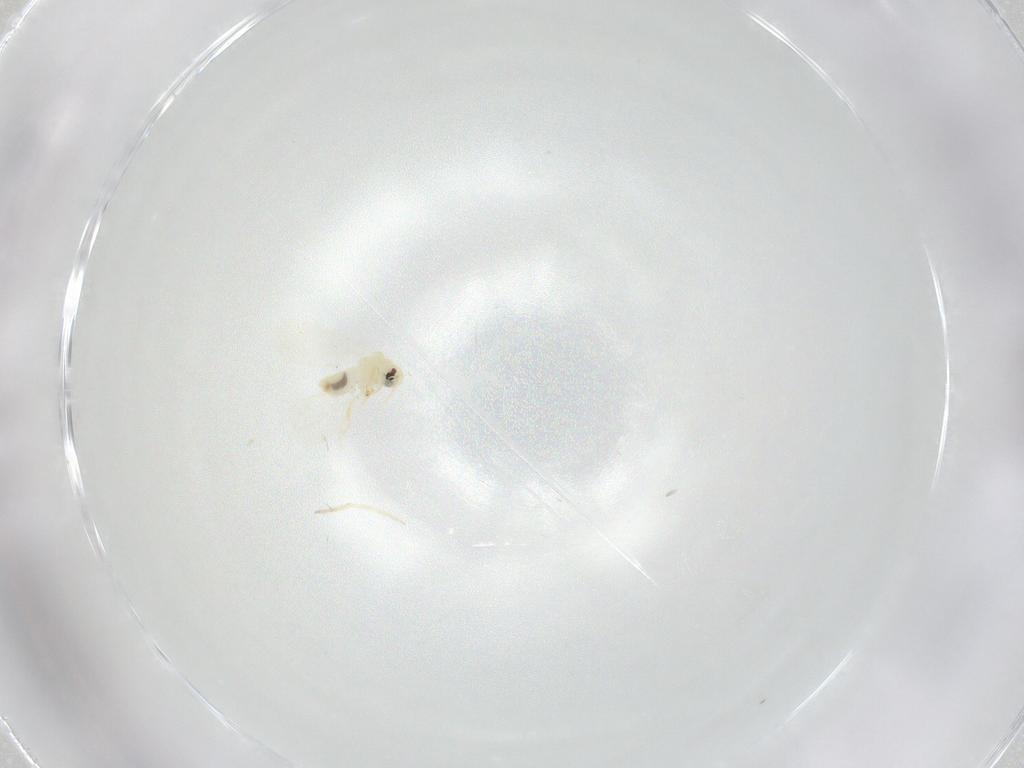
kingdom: Animalia
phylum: Arthropoda
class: Insecta
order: Hemiptera
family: Aleyrodidae
